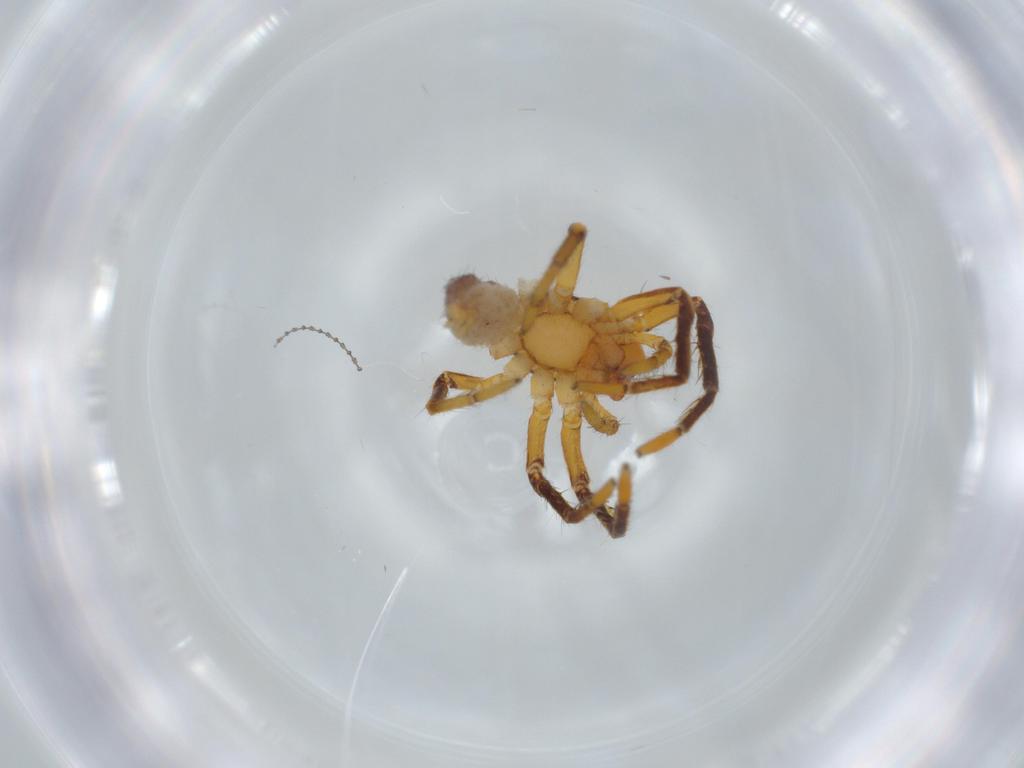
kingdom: Animalia
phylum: Arthropoda
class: Arachnida
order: Araneae
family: Corinnidae
